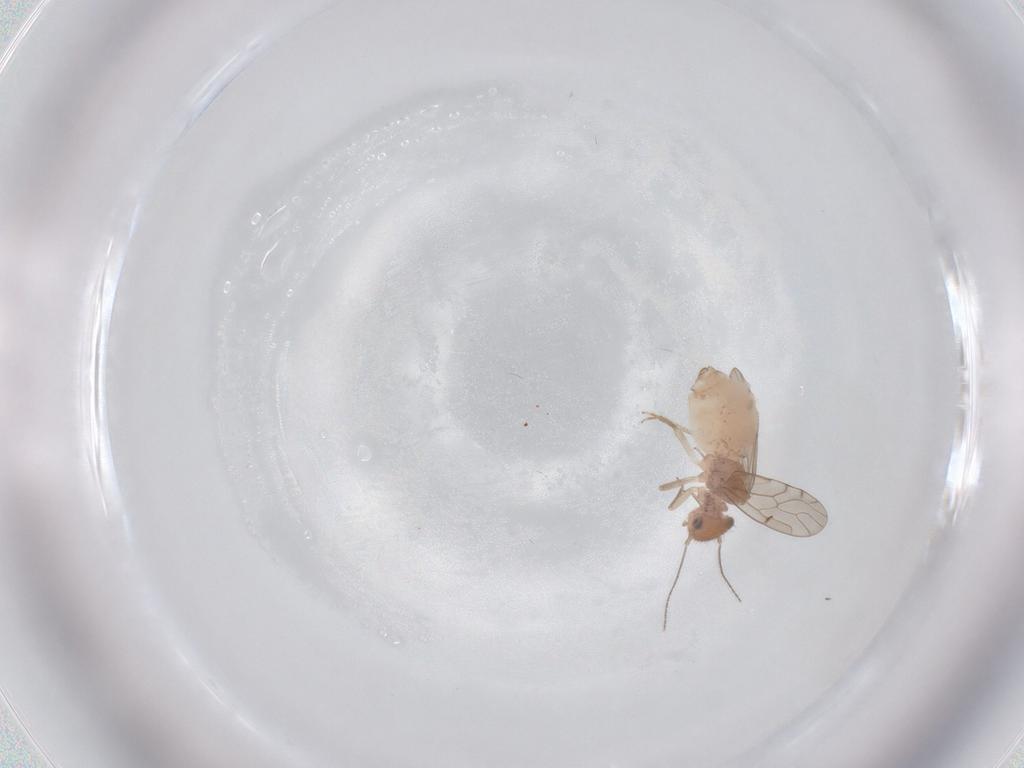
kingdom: Animalia
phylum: Arthropoda
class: Insecta
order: Psocodea
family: Ectopsocidae
